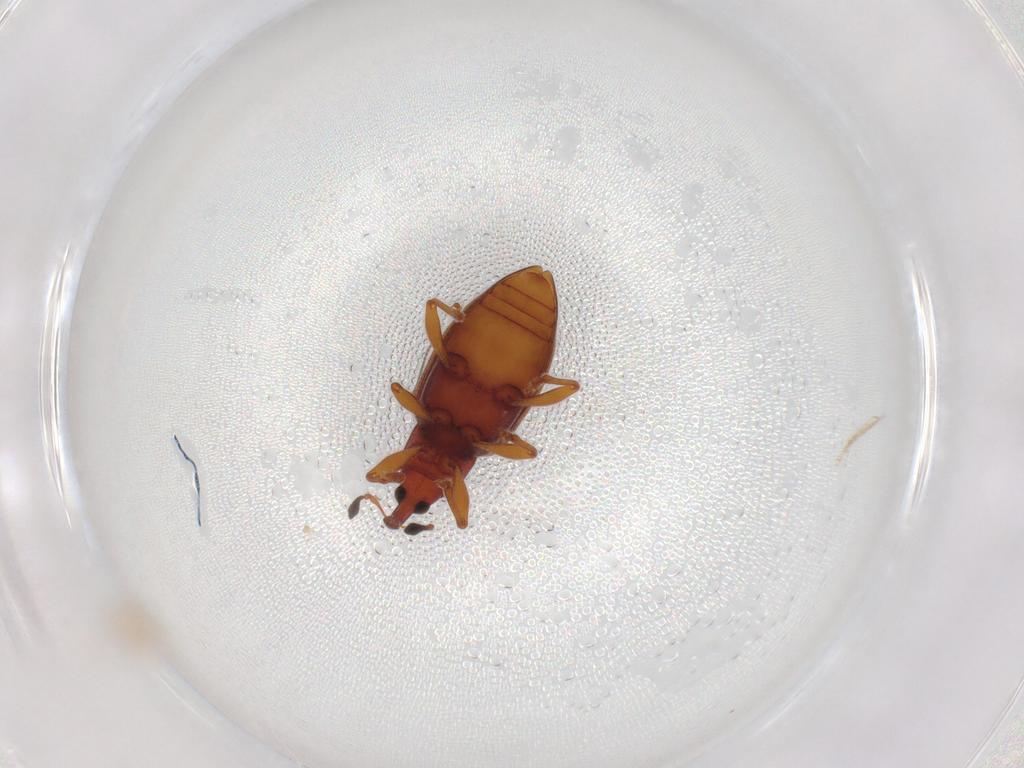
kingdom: Animalia
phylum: Arthropoda
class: Insecta
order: Coleoptera
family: Curculionidae
